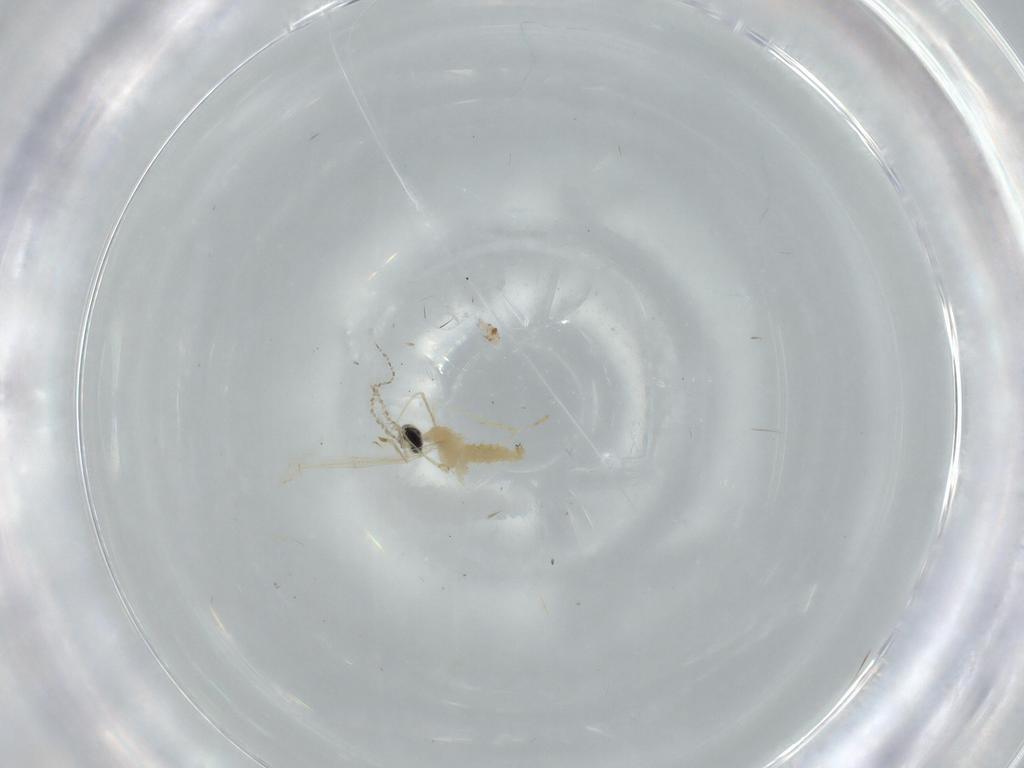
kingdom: Animalia
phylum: Arthropoda
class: Insecta
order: Diptera
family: Cecidomyiidae
